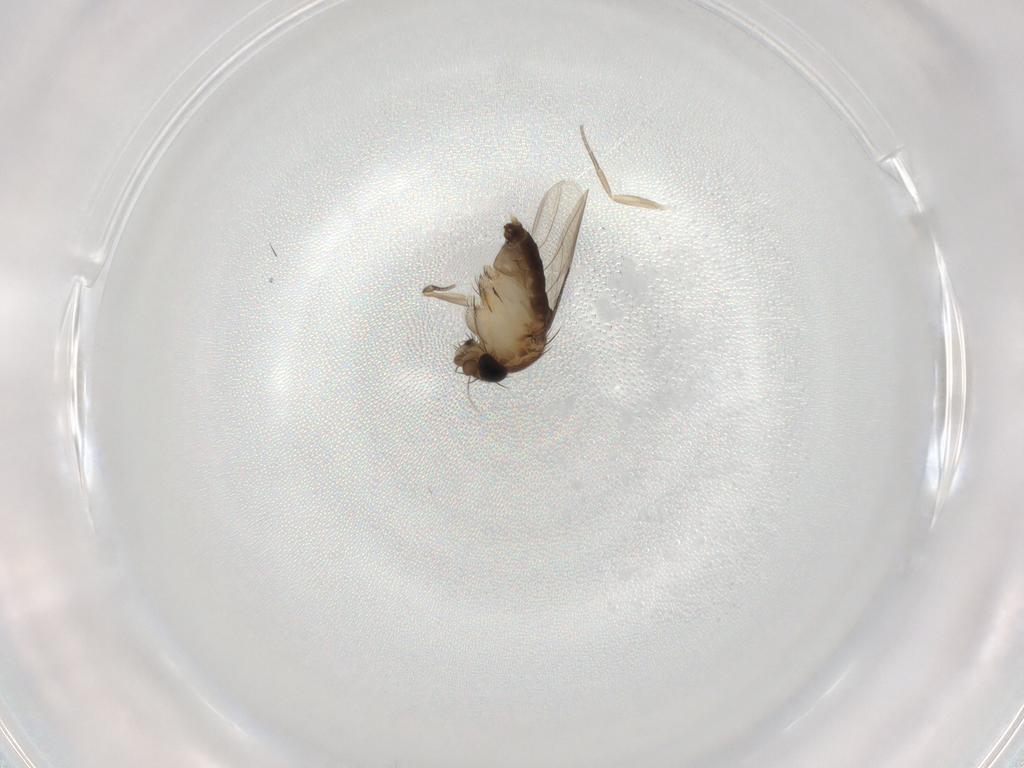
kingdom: Animalia
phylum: Arthropoda
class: Insecta
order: Diptera
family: Phoridae
